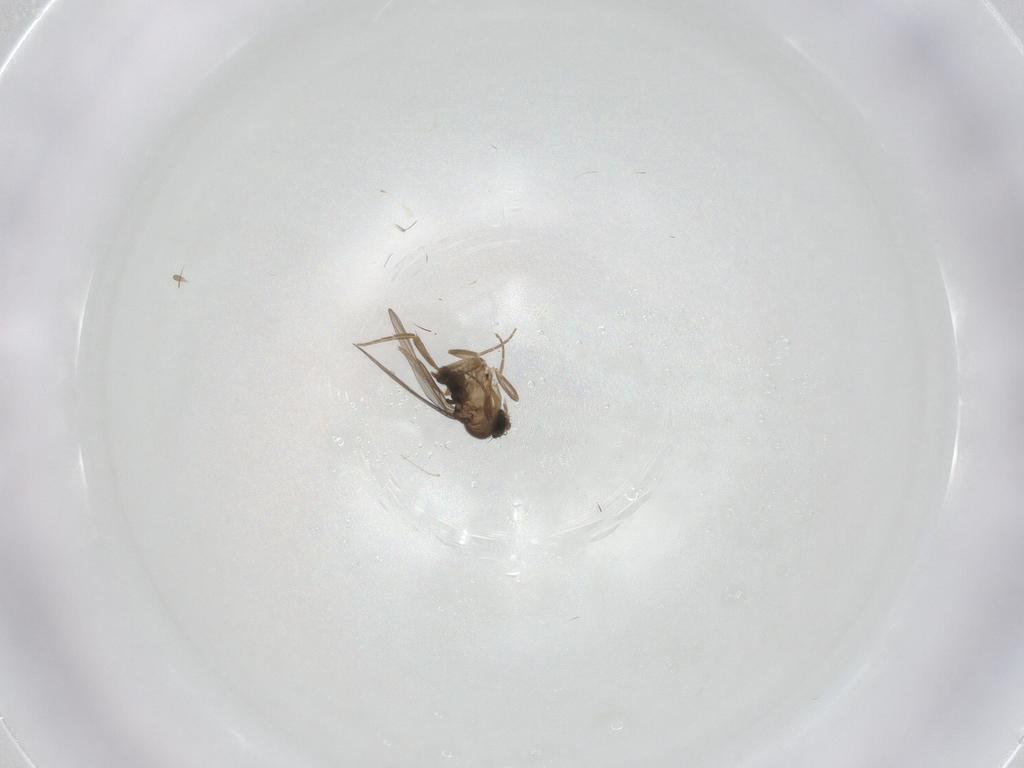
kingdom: Animalia
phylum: Arthropoda
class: Insecta
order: Diptera
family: Phoridae
